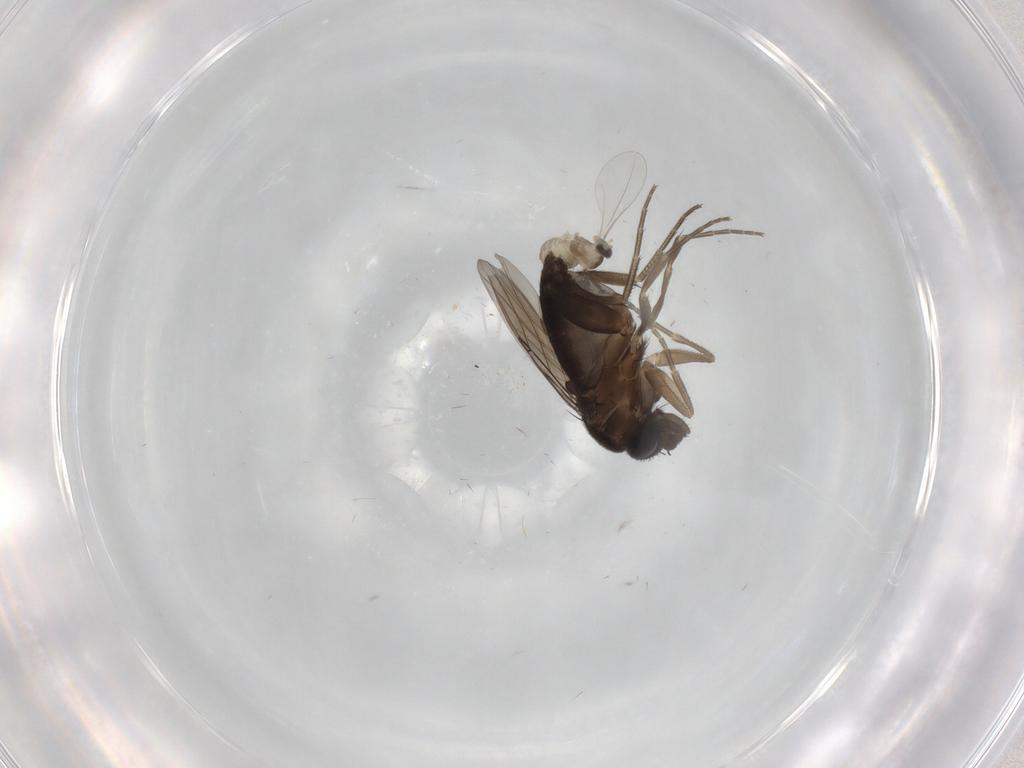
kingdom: Animalia
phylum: Arthropoda
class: Insecta
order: Diptera
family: Phoridae
